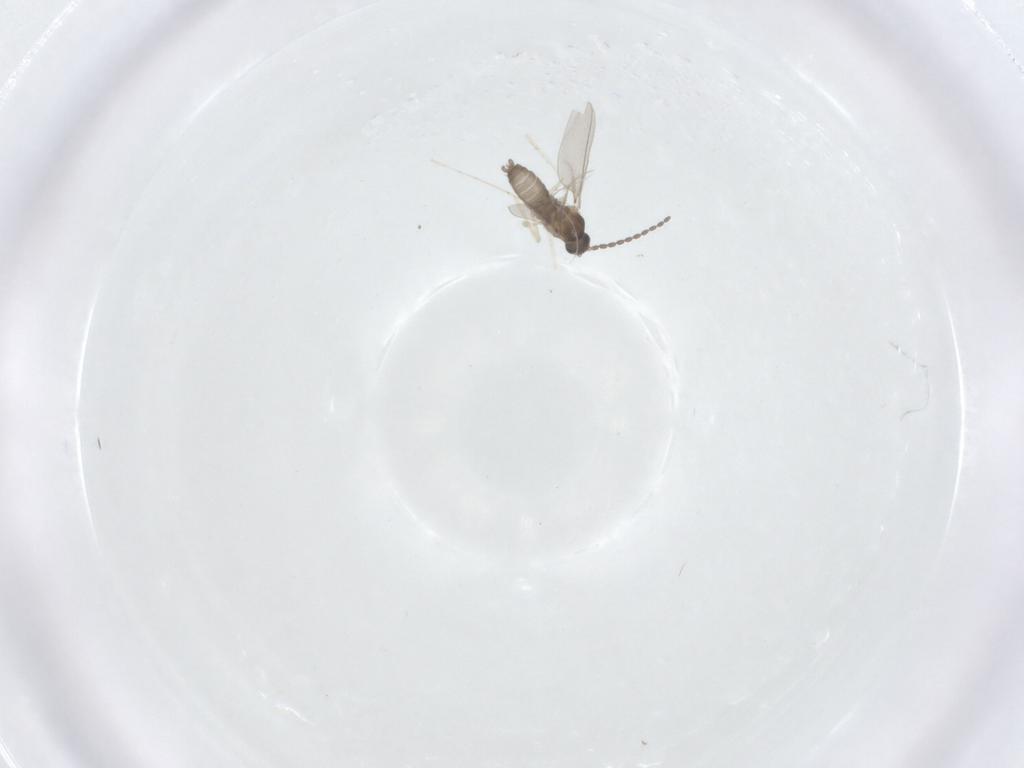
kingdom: Animalia
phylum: Arthropoda
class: Insecta
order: Diptera
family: Cecidomyiidae
